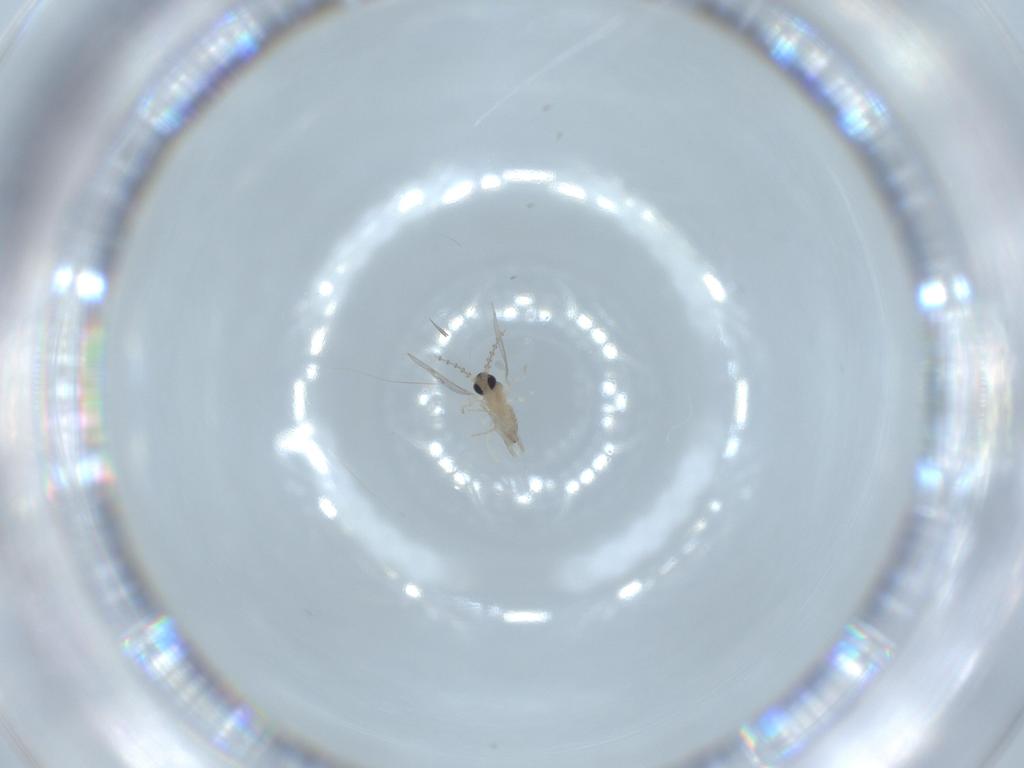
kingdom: Animalia
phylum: Arthropoda
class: Insecta
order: Diptera
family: Cecidomyiidae
